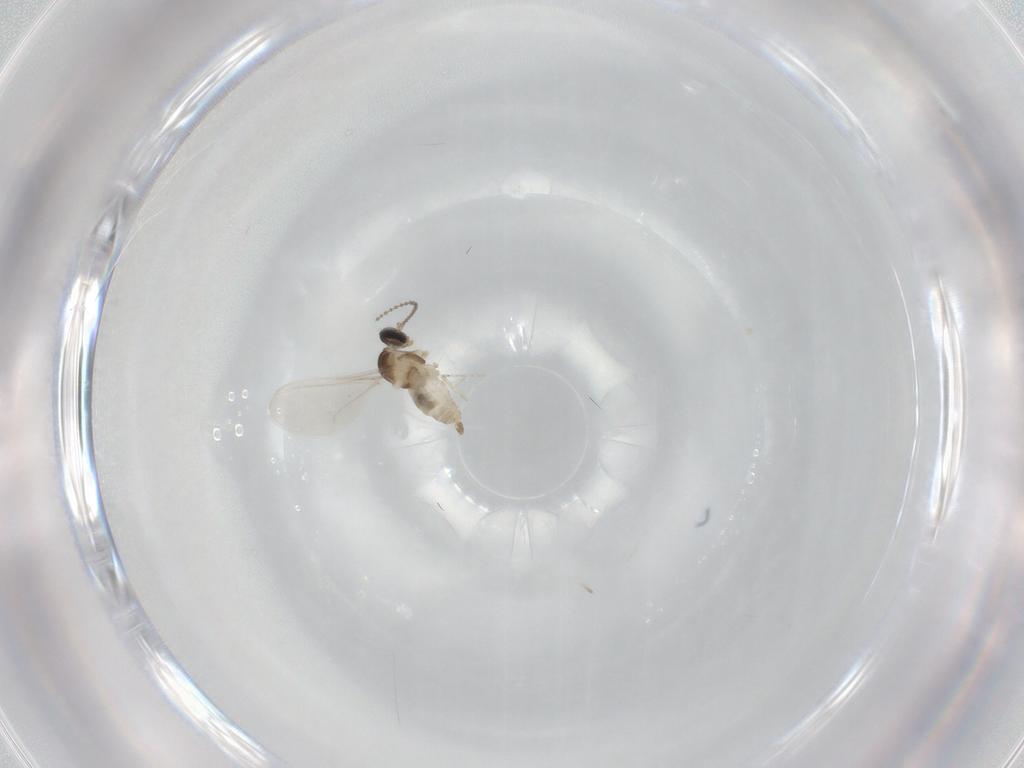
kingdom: Animalia
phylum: Arthropoda
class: Insecta
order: Diptera
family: Cecidomyiidae
